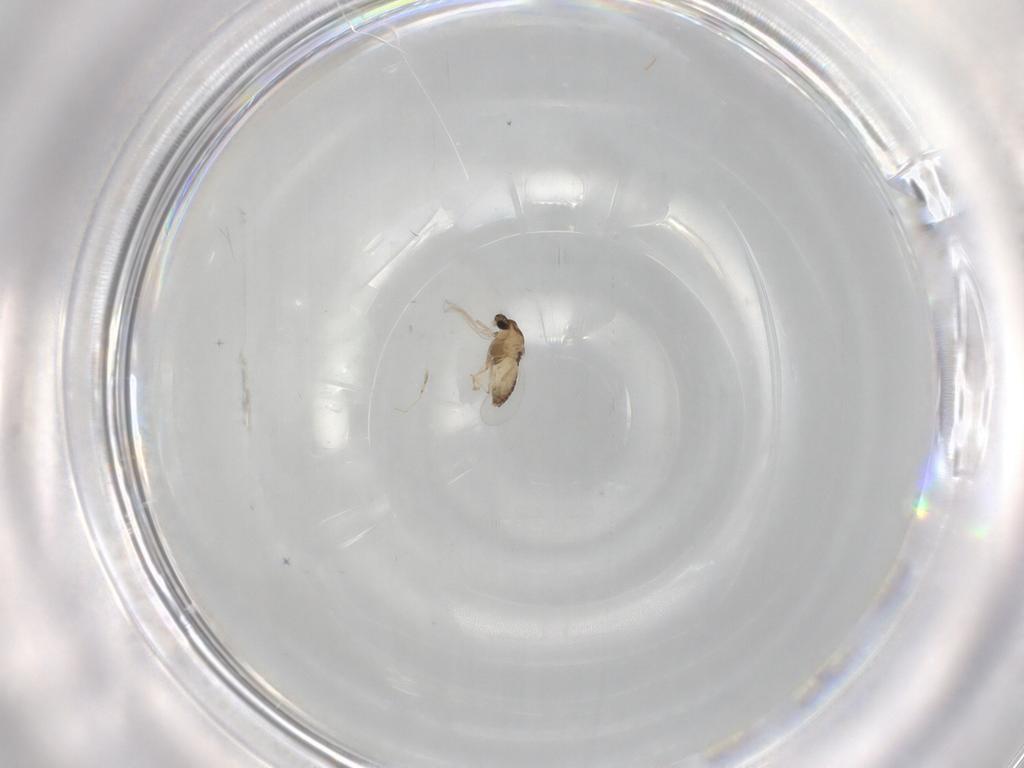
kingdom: Animalia
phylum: Arthropoda
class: Insecta
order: Diptera
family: Chironomidae
